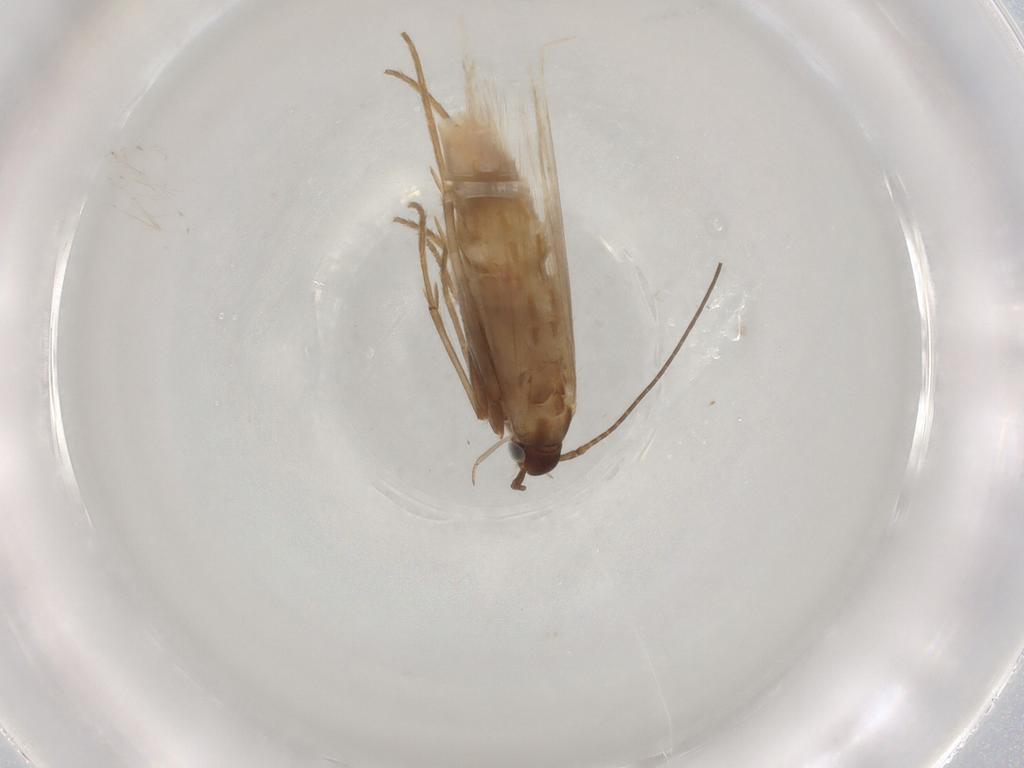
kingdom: Animalia
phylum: Arthropoda
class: Insecta
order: Lepidoptera
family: Coleophoridae
